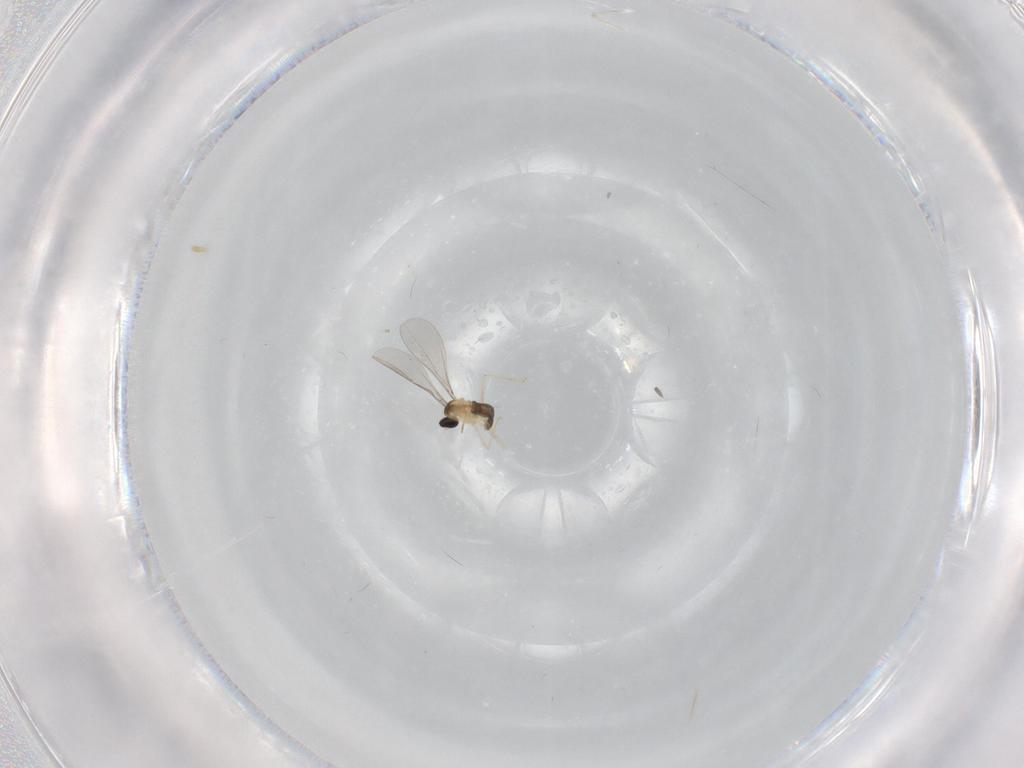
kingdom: Animalia
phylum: Arthropoda
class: Insecta
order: Diptera
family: Cecidomyiidae
